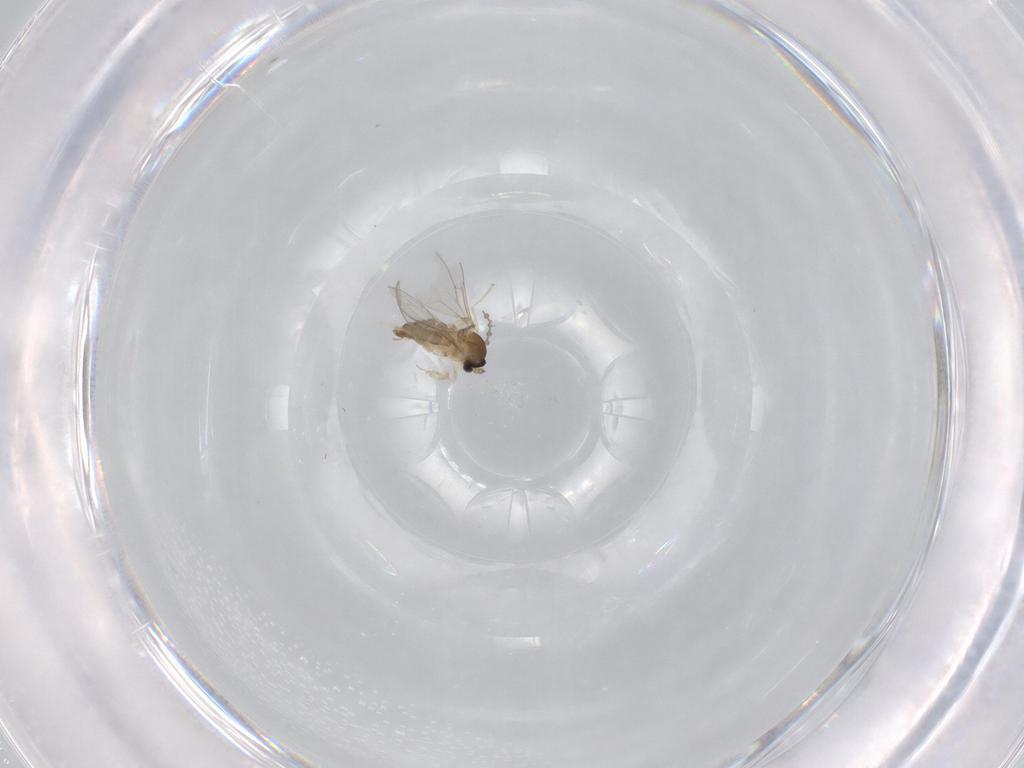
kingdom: Animalia
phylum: Arthropoda
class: Insecta
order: Diptera
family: Cecidomyiidae
